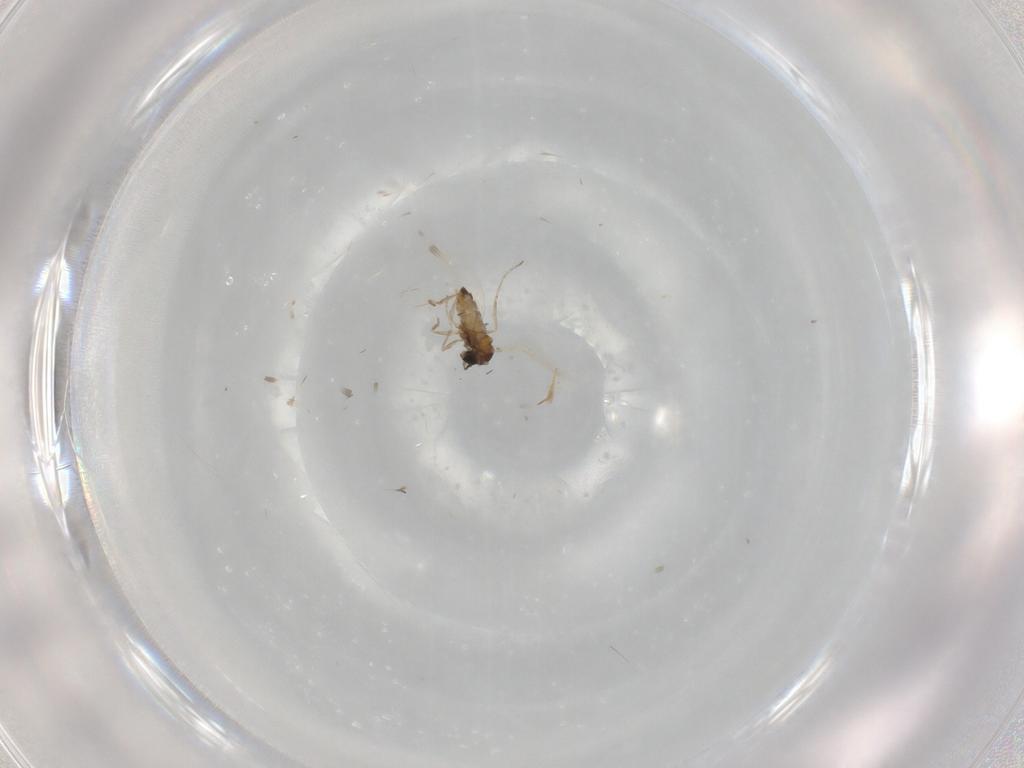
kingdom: Animalia
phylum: Arthropoda
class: Insecta
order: Diptera
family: Cecidomyiidae
